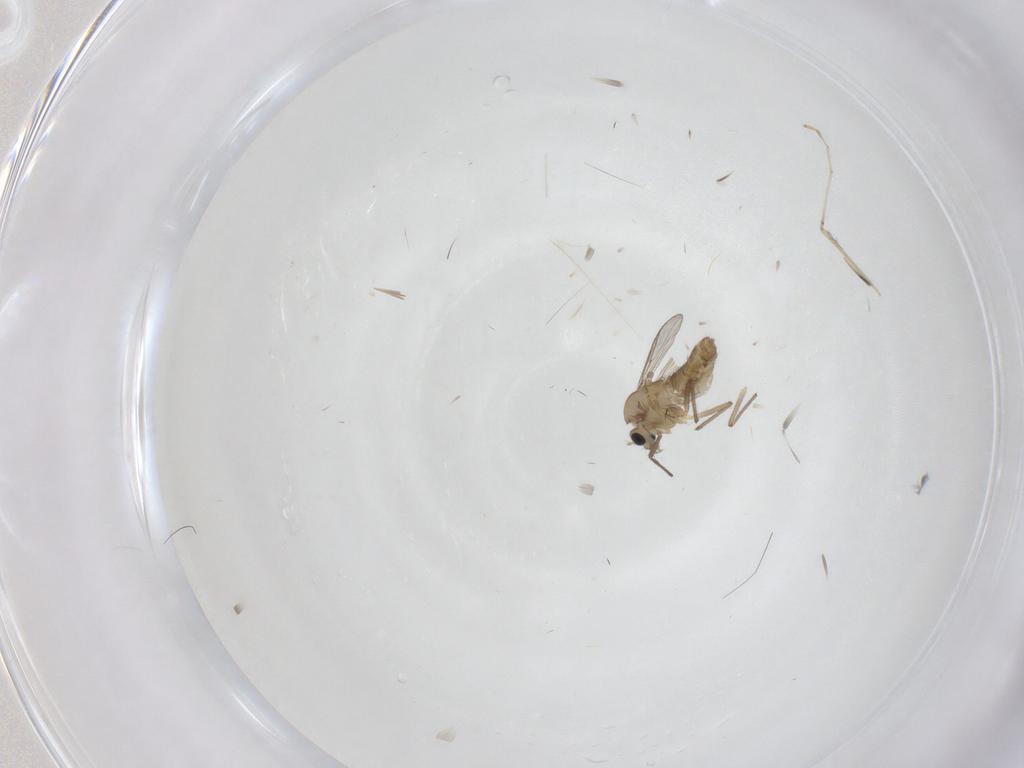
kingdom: Animalia
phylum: Arthropoda
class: Insecta
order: Diptera
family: Chironomidae
